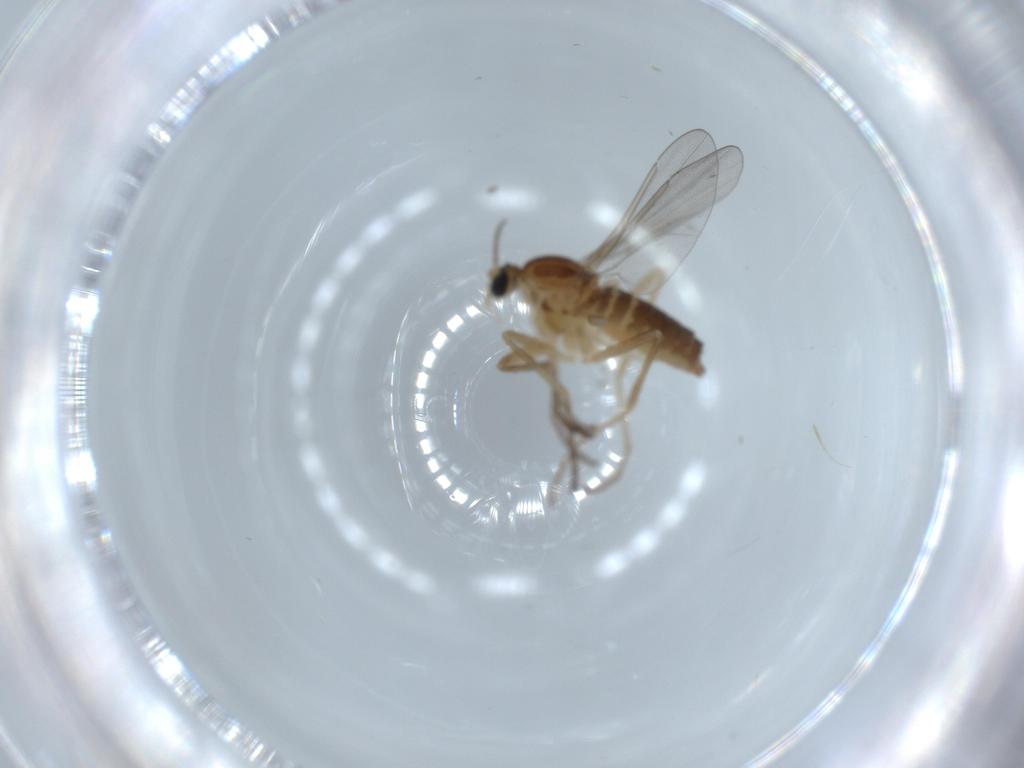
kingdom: Animalia
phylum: Arthropoda
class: Insecta
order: Diptera
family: Cecidomyiidae
